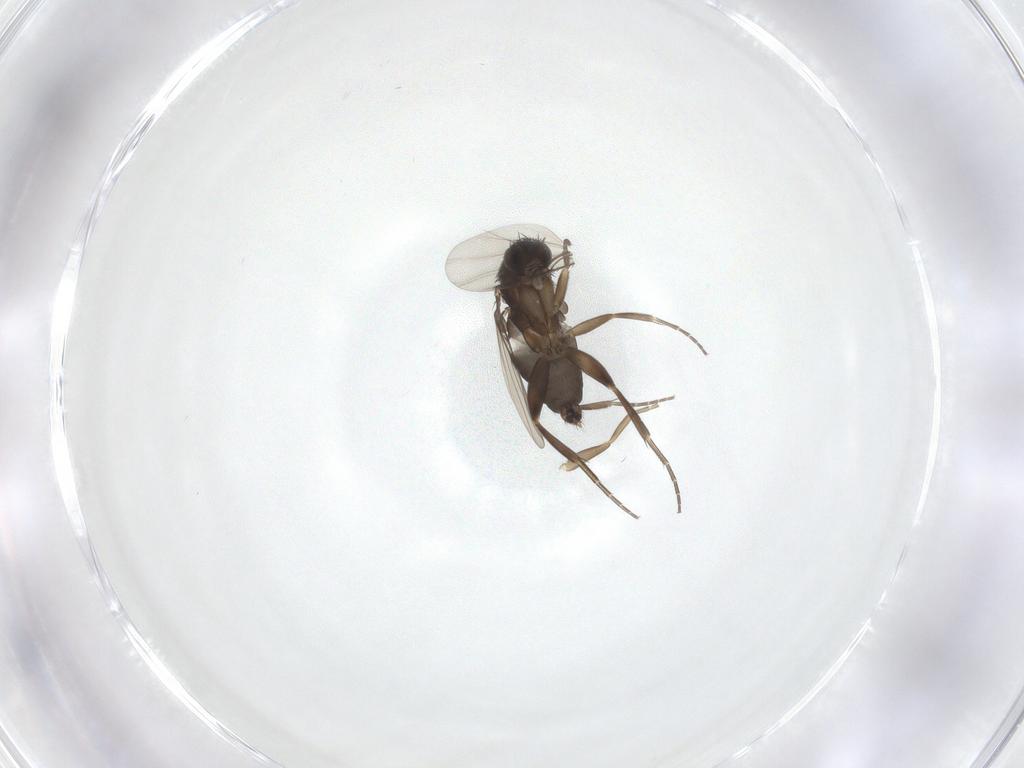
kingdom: Animalia
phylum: Arthropoda
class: Insecta
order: Diptera
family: Phoridae
